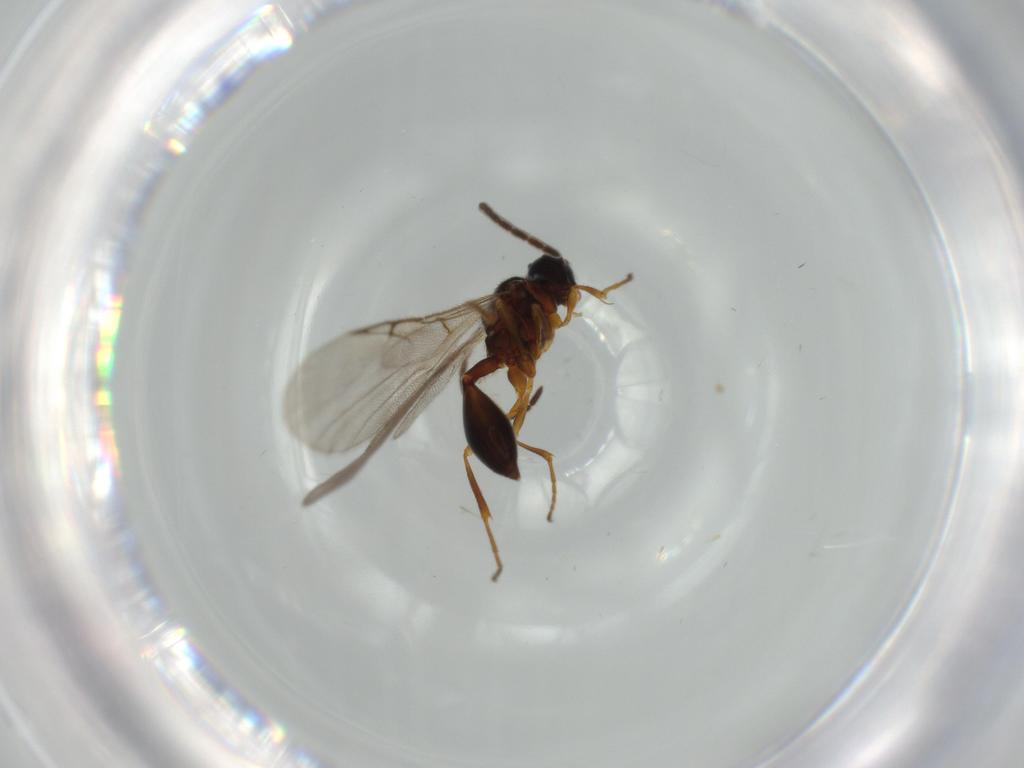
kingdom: Animalia
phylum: Arthropoda
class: Insecta
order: Hymenoptera
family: Diapriidae
